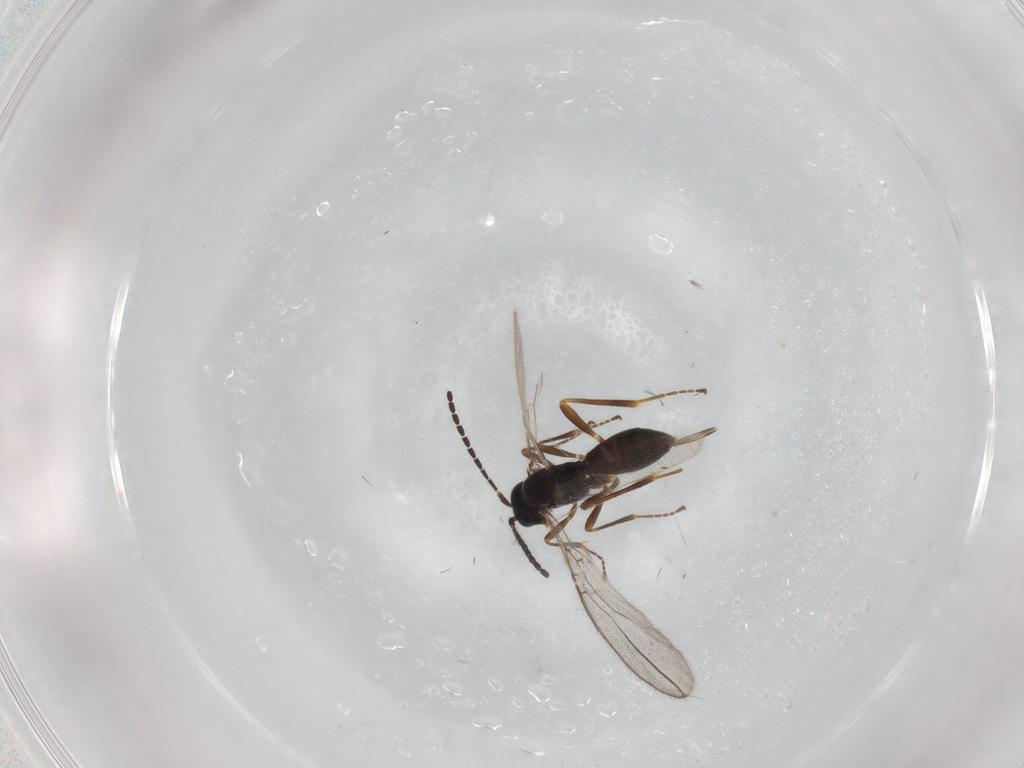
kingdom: Animalia
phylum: Arthropoda
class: Insecta
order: Hymenoptera
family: Braconidae
